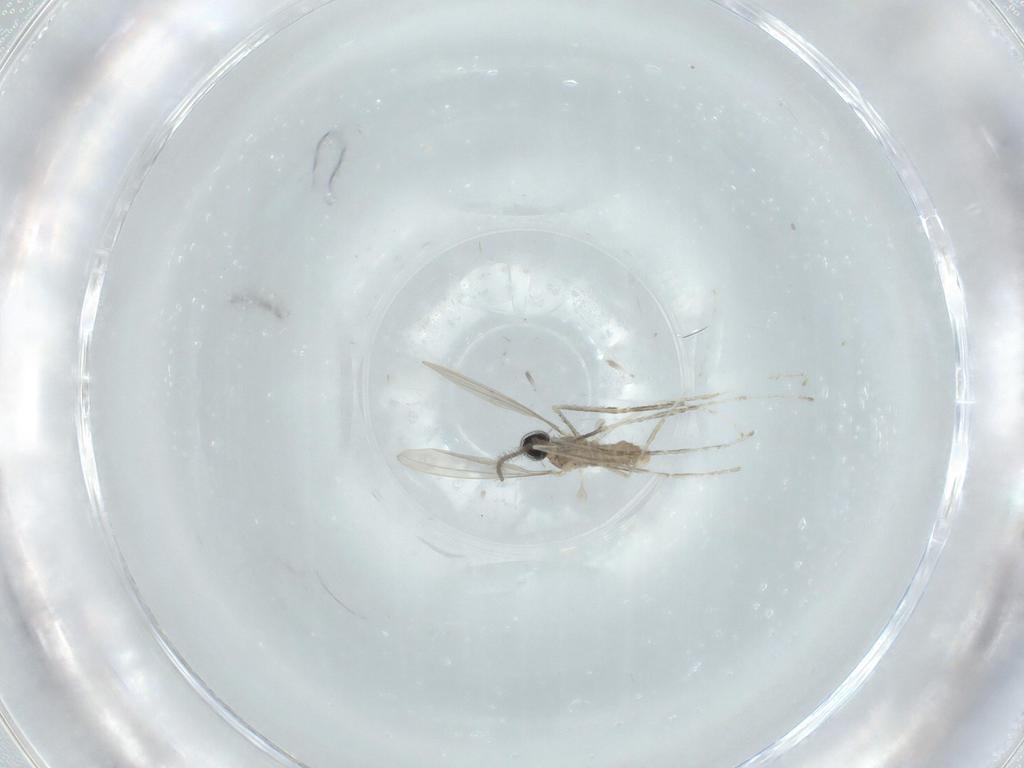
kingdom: Animalia
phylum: Arthropoda
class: Insecta
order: Diptera
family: Cecidomyiidae
